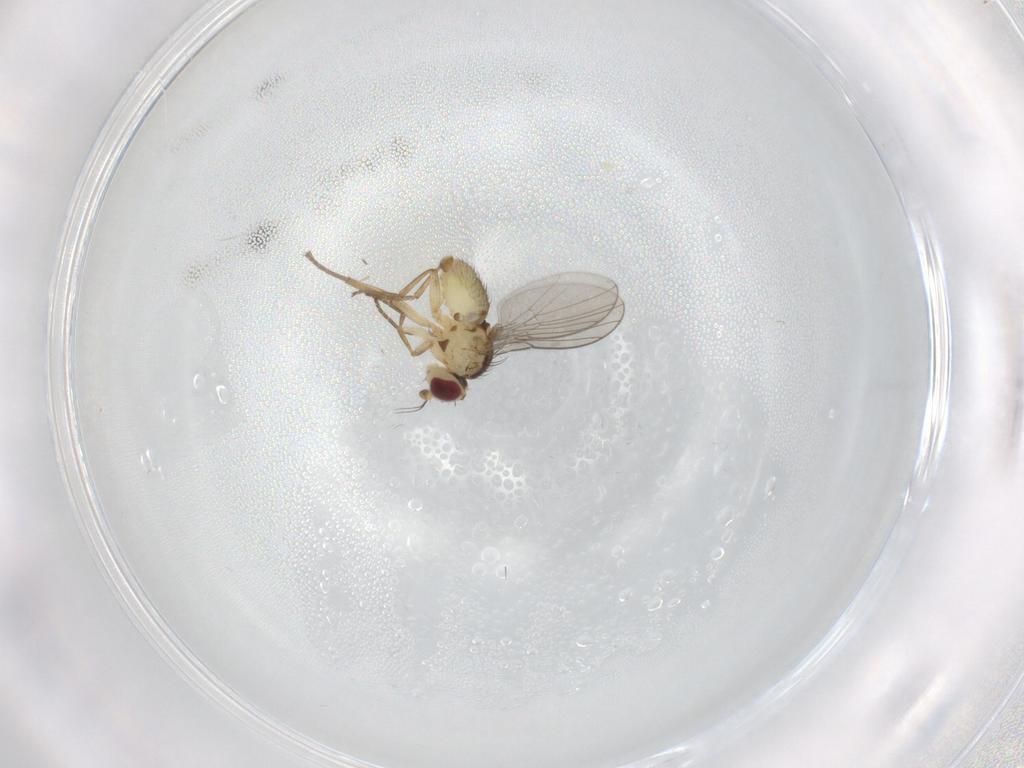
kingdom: Animalia
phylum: Arthropoda
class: Insecta
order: Diptera
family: Agromyzidae
